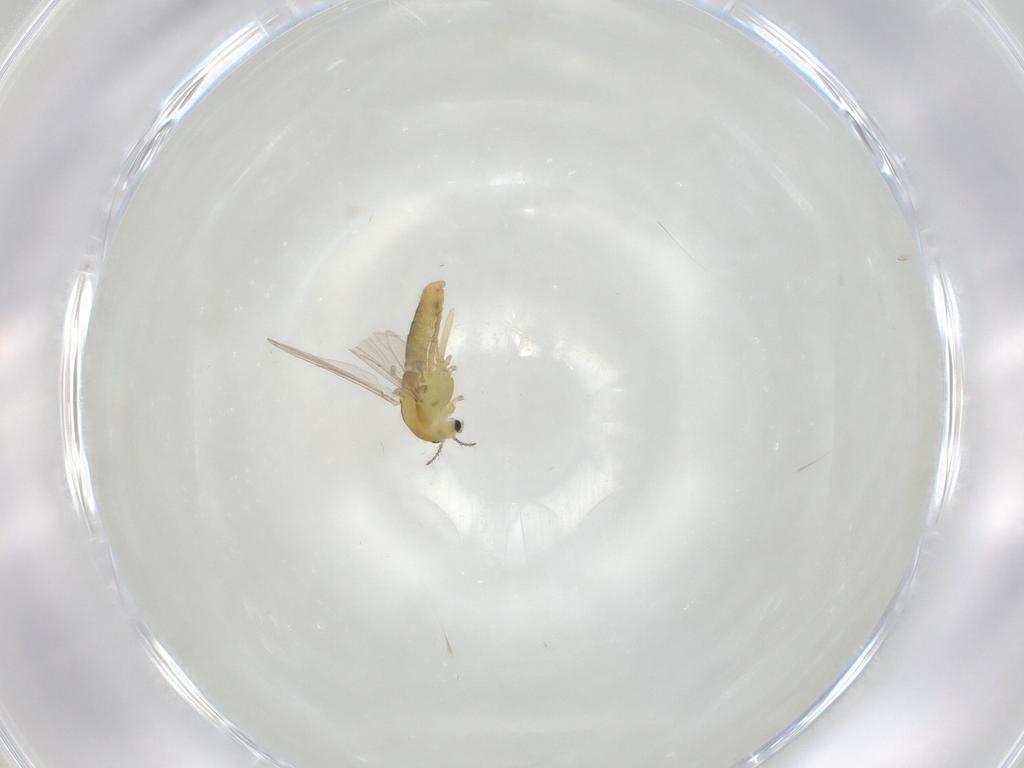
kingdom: Animalia
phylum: Arthropoda
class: Insecta
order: Diptera
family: Chironomidae
